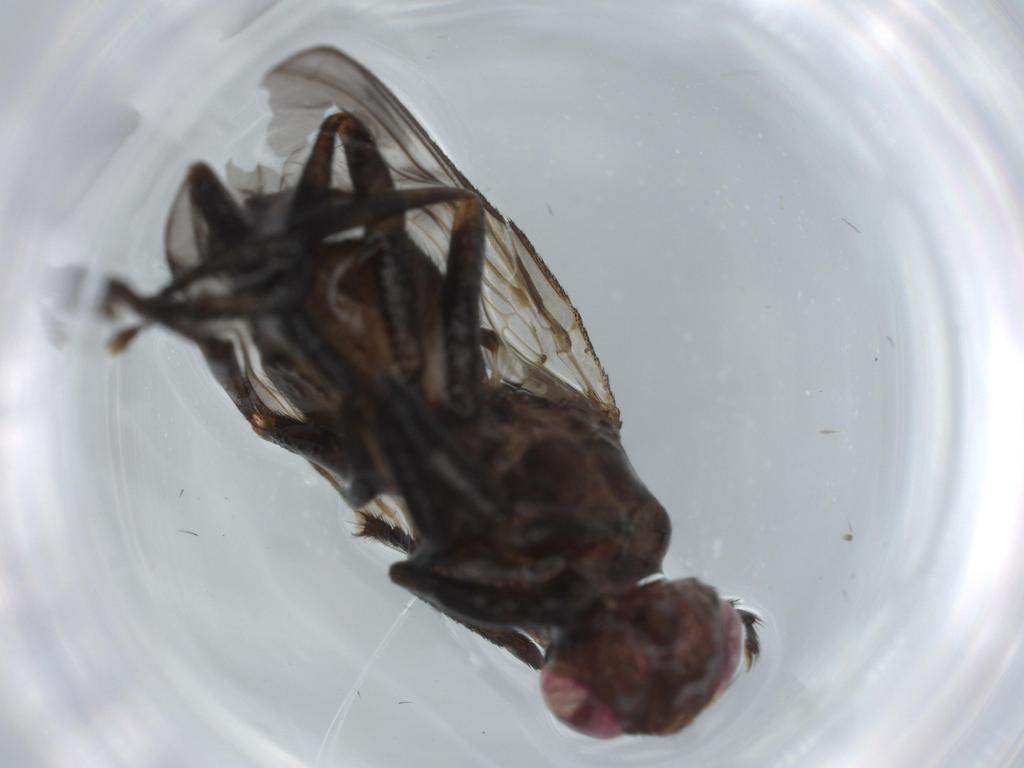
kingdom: Animalia
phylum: Arthropoda
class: Insecta
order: Diptera
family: Calliphoridae
